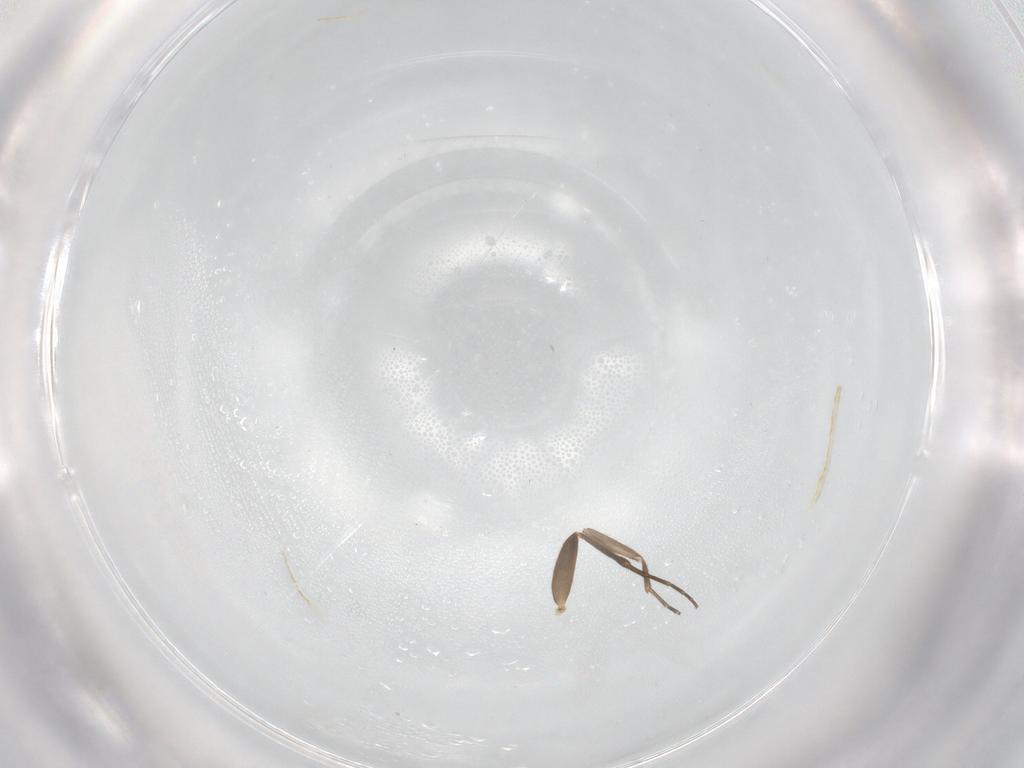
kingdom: Animalia
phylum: Arthropoda
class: Insecta
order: Diptera
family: Phoridae
